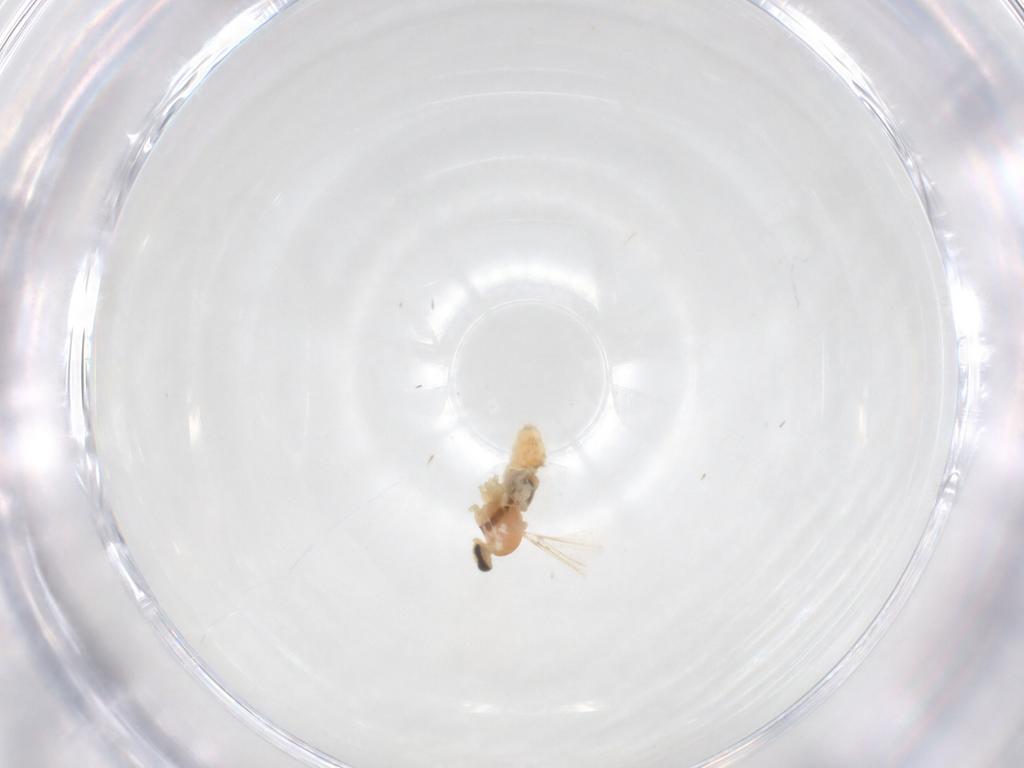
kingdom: Animalia
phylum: Arthropoda
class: Insecta
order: Diptera
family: Cecidomyiidae
